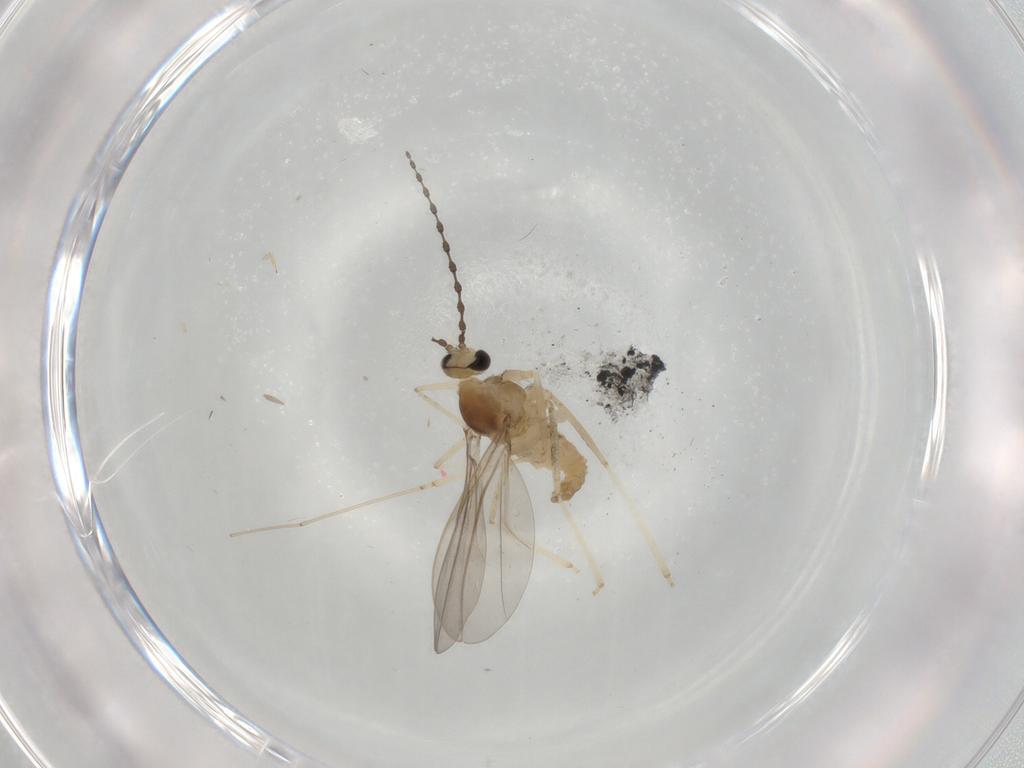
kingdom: Animalia
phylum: Arthropoda
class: Insecta
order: Diptera
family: Cecidomyiidae
